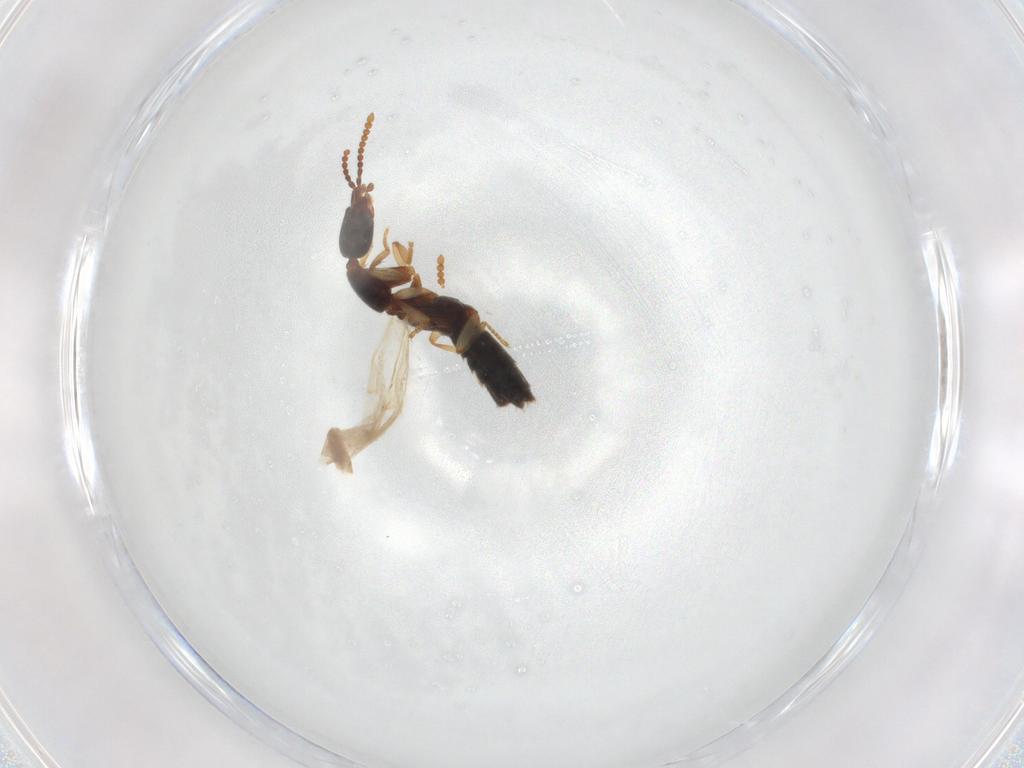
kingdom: Animalia
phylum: Arthropoda
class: Insecta
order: Coleoptera
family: Staphylinidae
